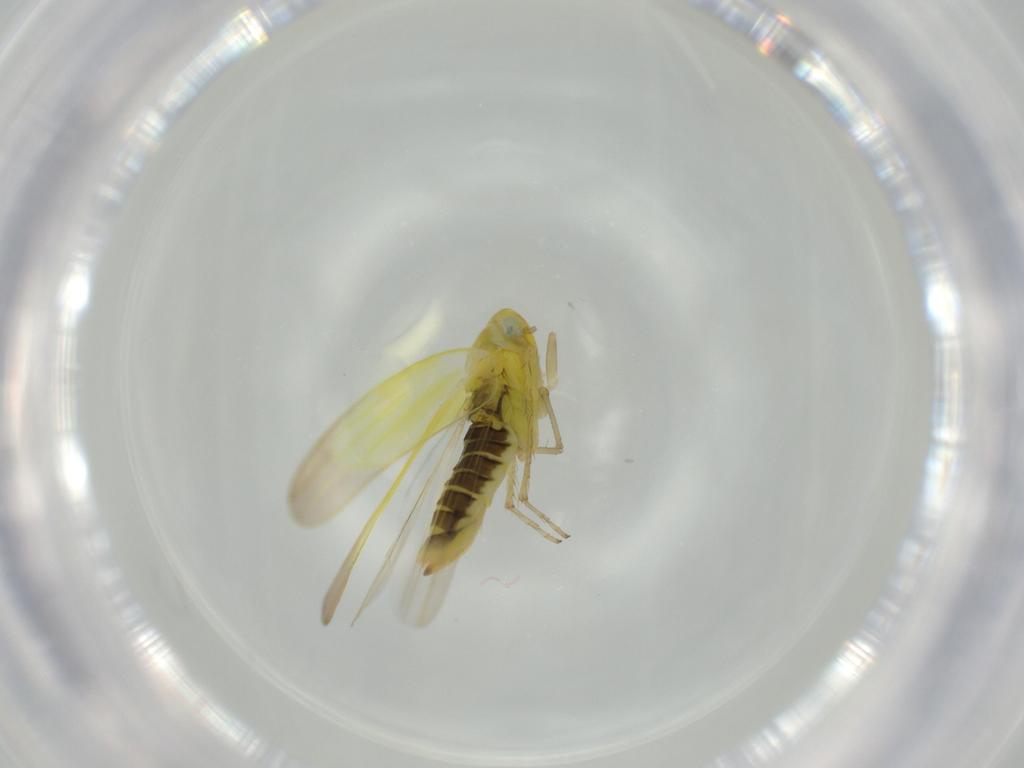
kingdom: Animalia
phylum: Arthropoda
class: Insecta
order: Hemiptera
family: Cicadellidae
